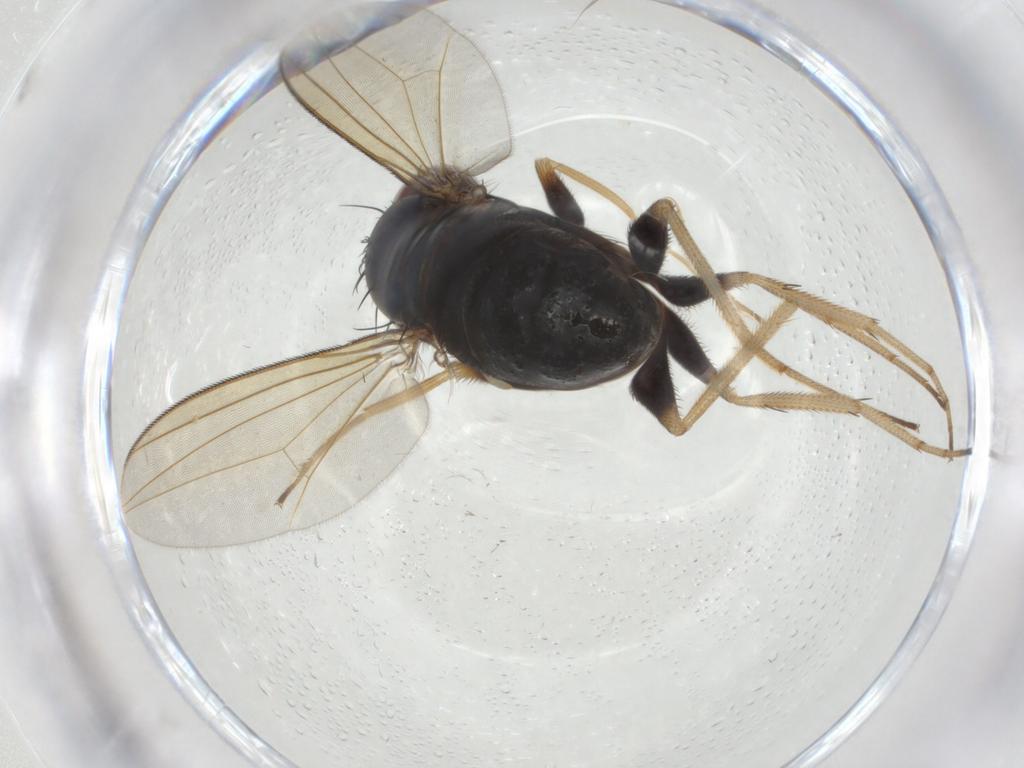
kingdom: Animalia
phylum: Arthropoda
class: Insecta
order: Diptera
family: Dolichopodidae
